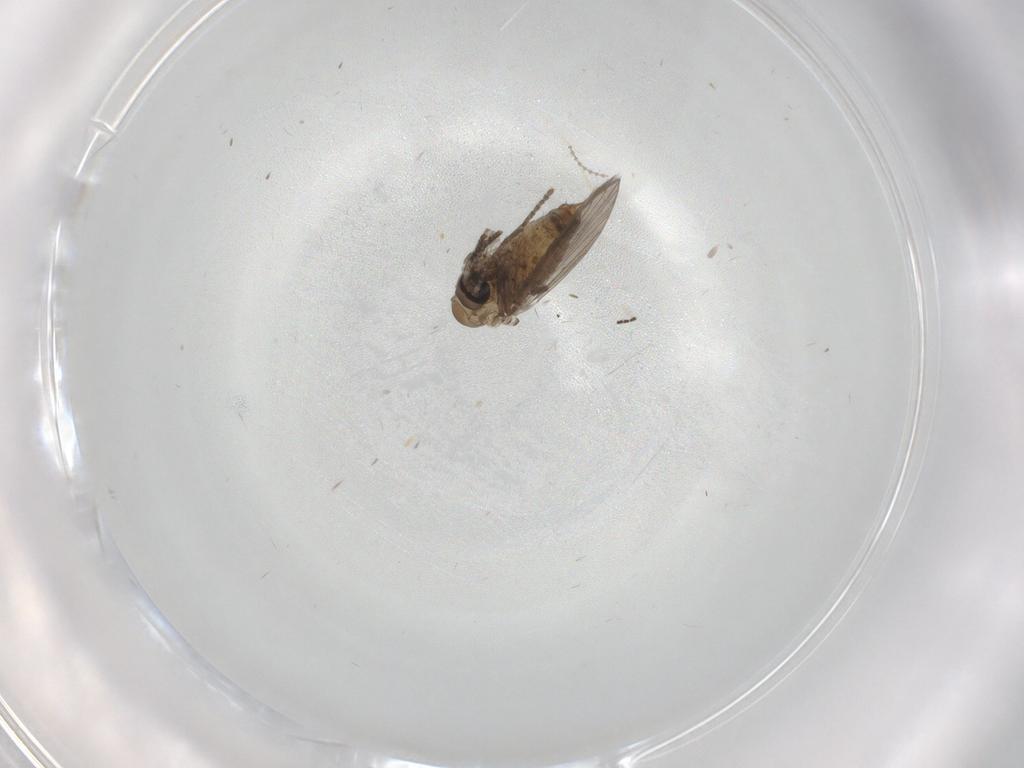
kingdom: Animalia
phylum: Arthropoda
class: Insecta
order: Diptera
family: Psychodidae
